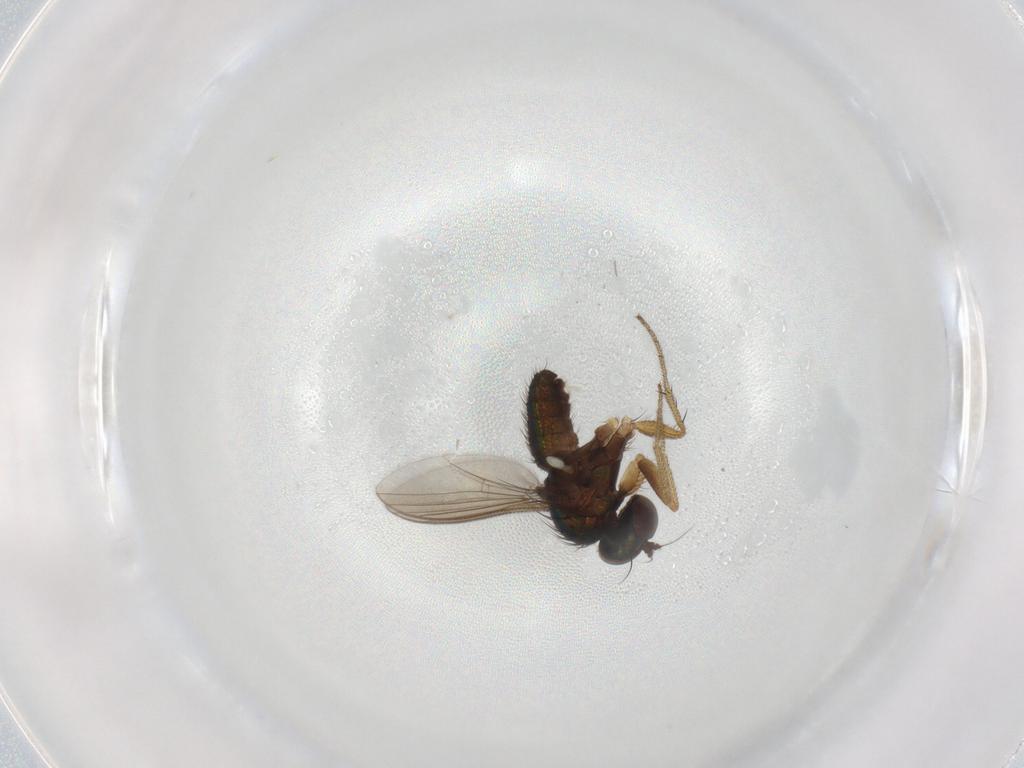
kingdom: Animalia
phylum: Arthropoda
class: Insecta
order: Diptera
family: Dolichopodidae
